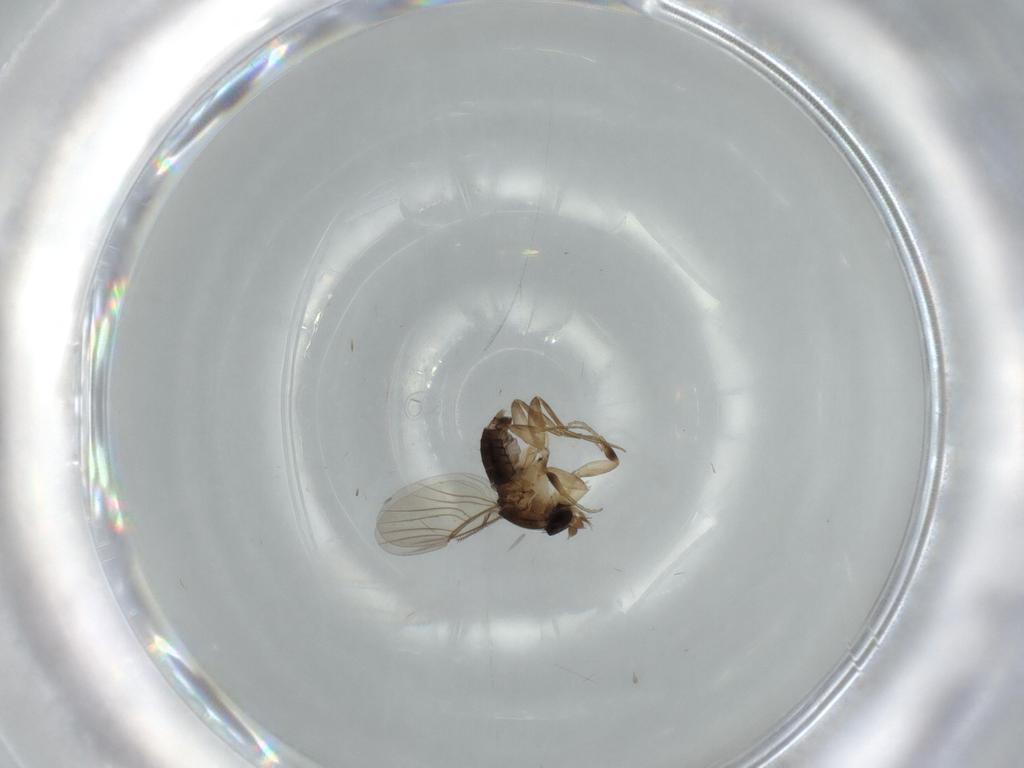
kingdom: Animalia
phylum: Arthropoda
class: Insecta
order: Diptera
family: Phoridae
